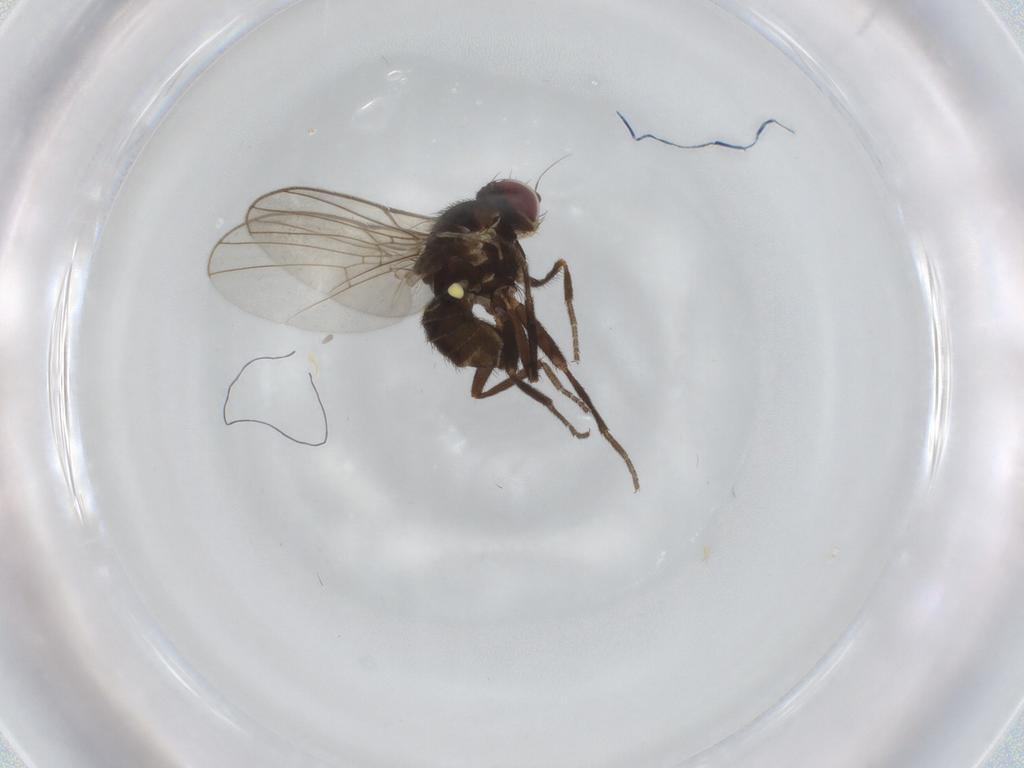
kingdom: Animalia
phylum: Arthropoda
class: Insecta
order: Diptera
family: Agromyzidae
